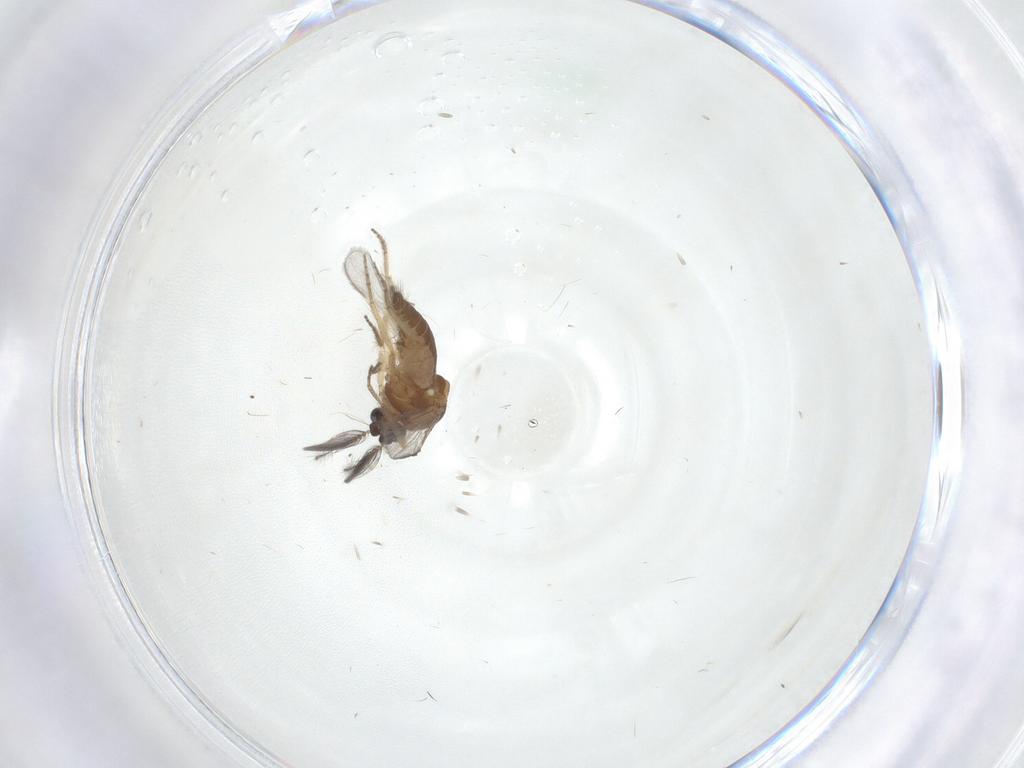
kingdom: Animalia
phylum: Arthropoda
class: Insecta
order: Diptera
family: Ceratopogonidae
